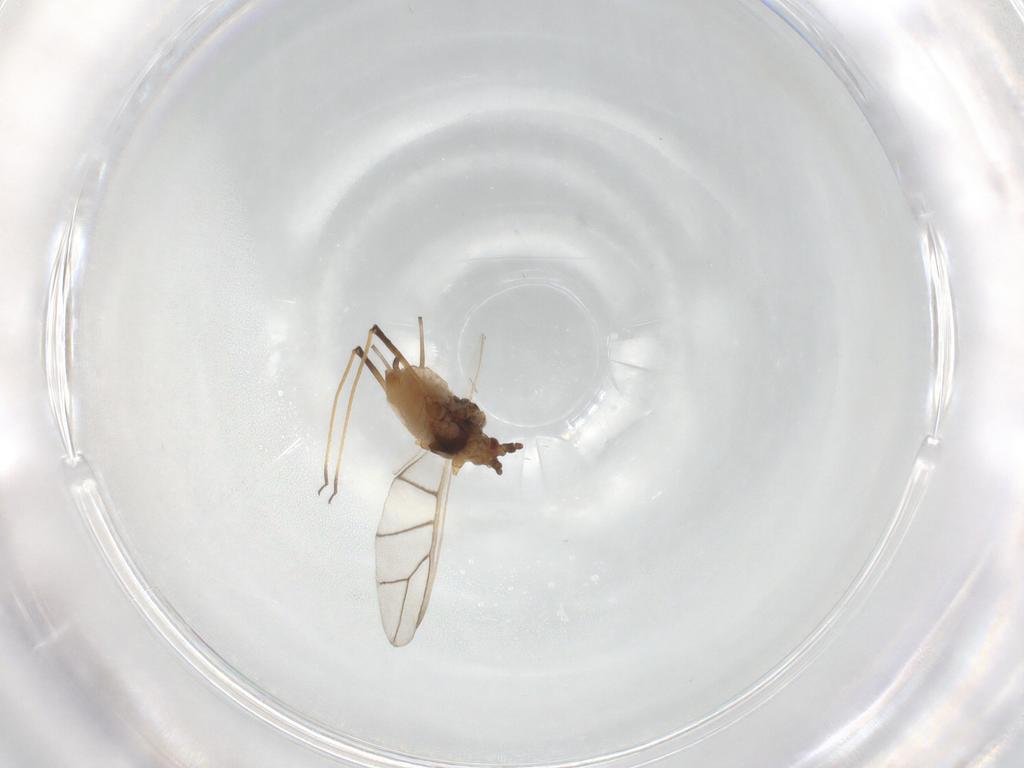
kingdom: Animalia
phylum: Arthropoda
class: Insecta
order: Hemiptera
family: Aphididae
